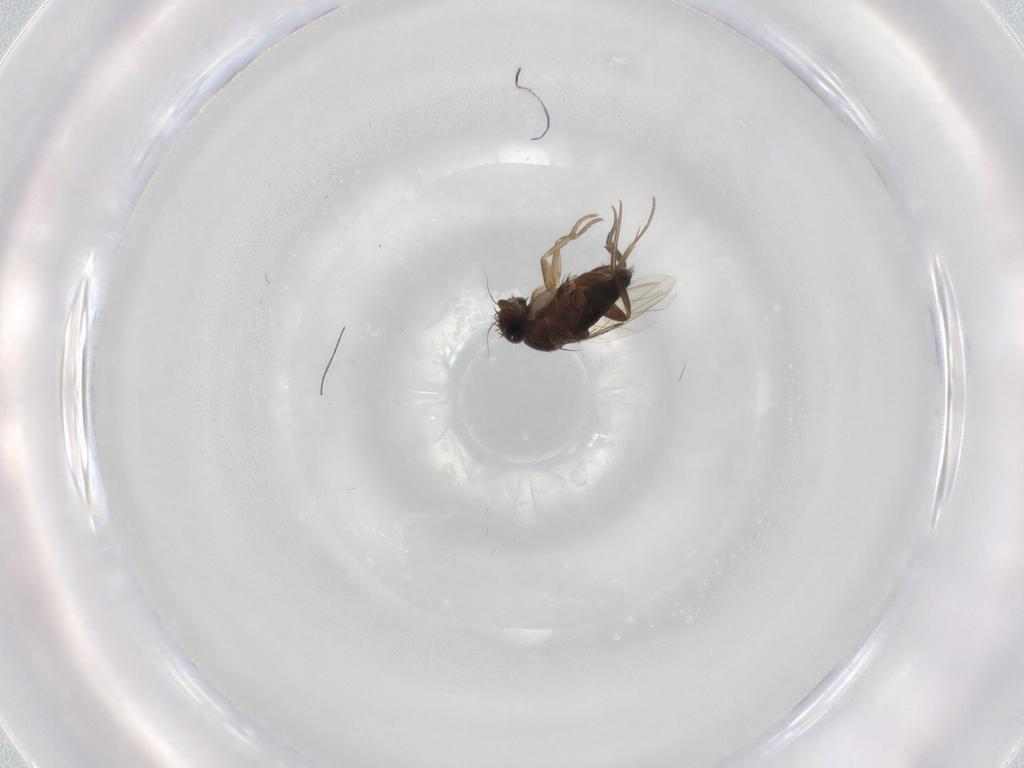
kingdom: Animalia
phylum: Arthropoda
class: Insecta
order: Diptera
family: Phoridae
